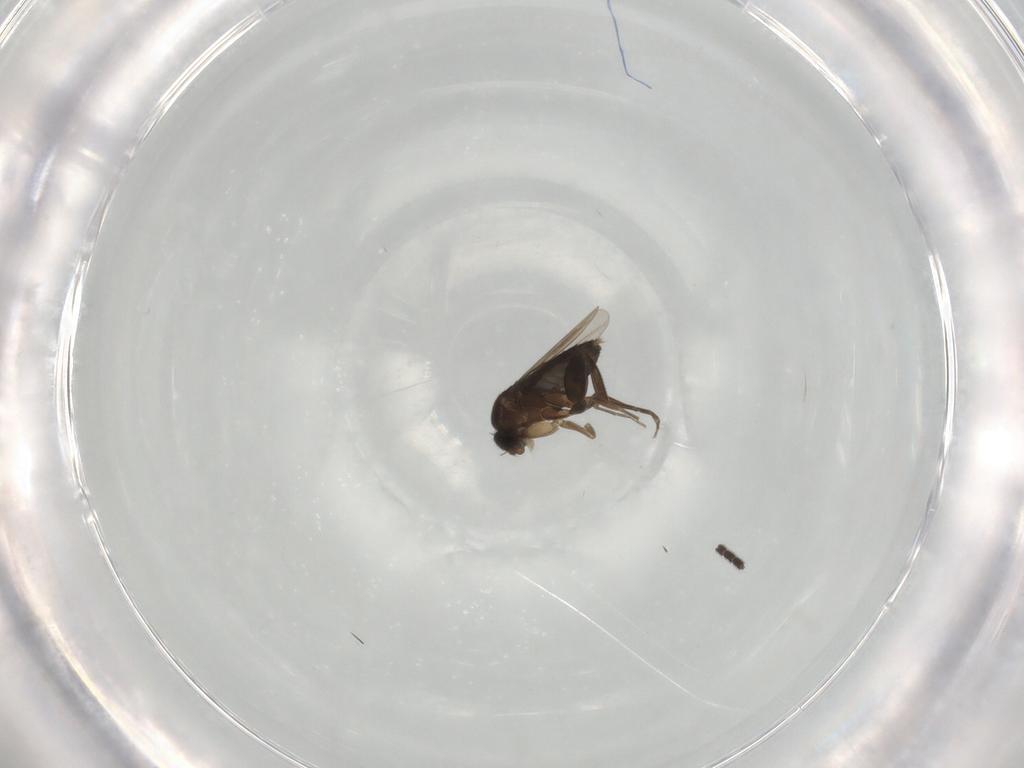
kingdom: Animalia
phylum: Arthropoda
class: Insecta
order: Diptera
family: Phoridae
